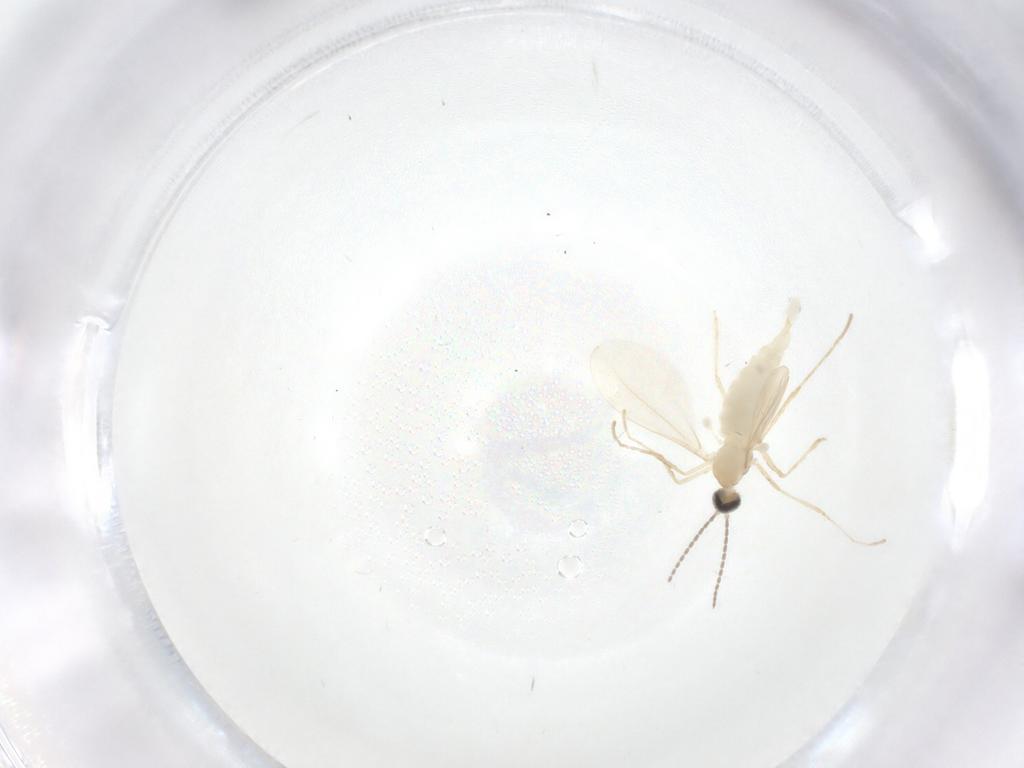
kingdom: Animalia
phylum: Arthropoda
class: Insecta
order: Diptera
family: Cecidomyiidae
